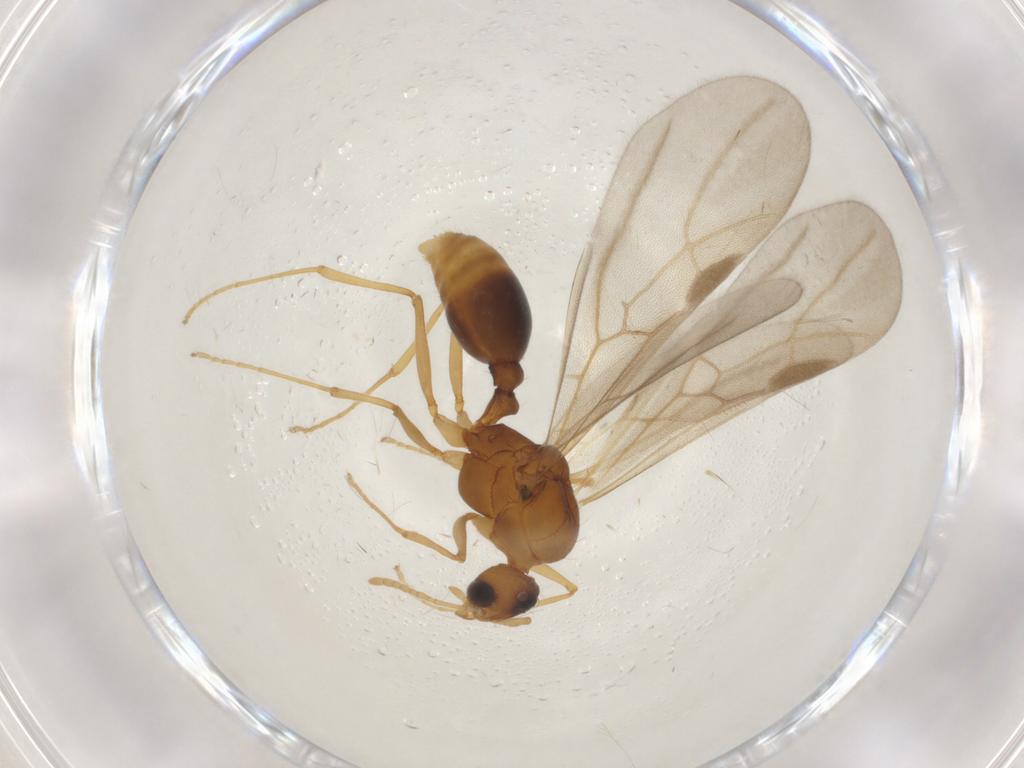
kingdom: Animalia
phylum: Arthropoda
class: Insecta
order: Hymenoptera
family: Formicidae
